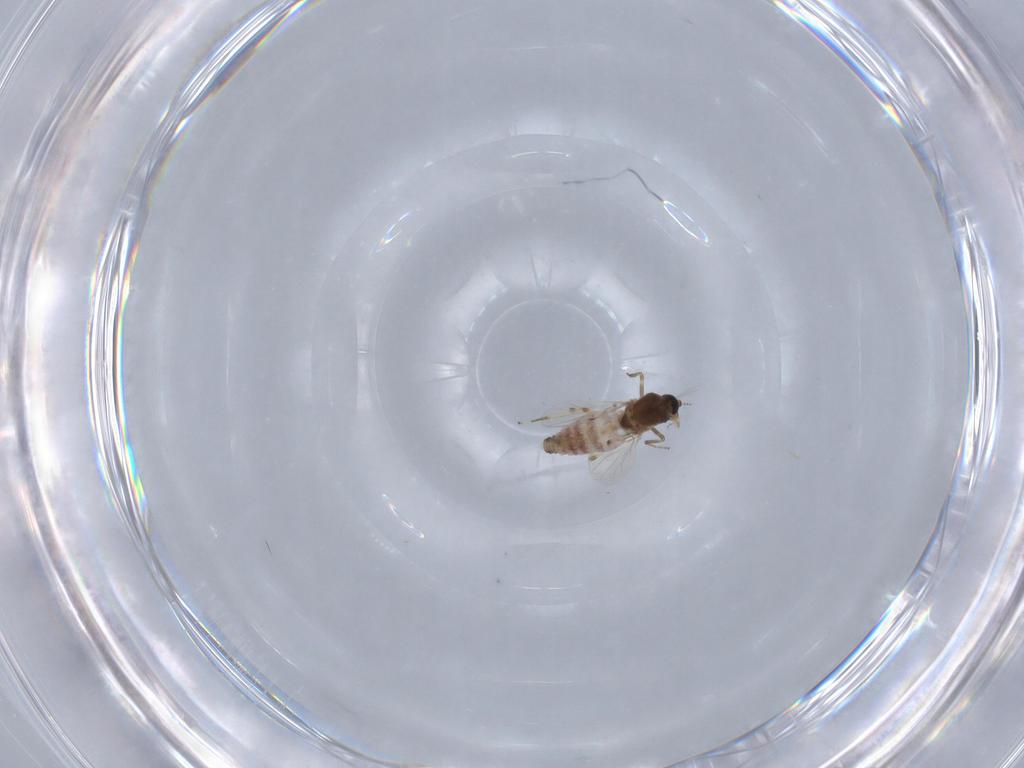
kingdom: Animalia
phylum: Arthropoda
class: Insecta
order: Diptera
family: Ceratopogonidae
